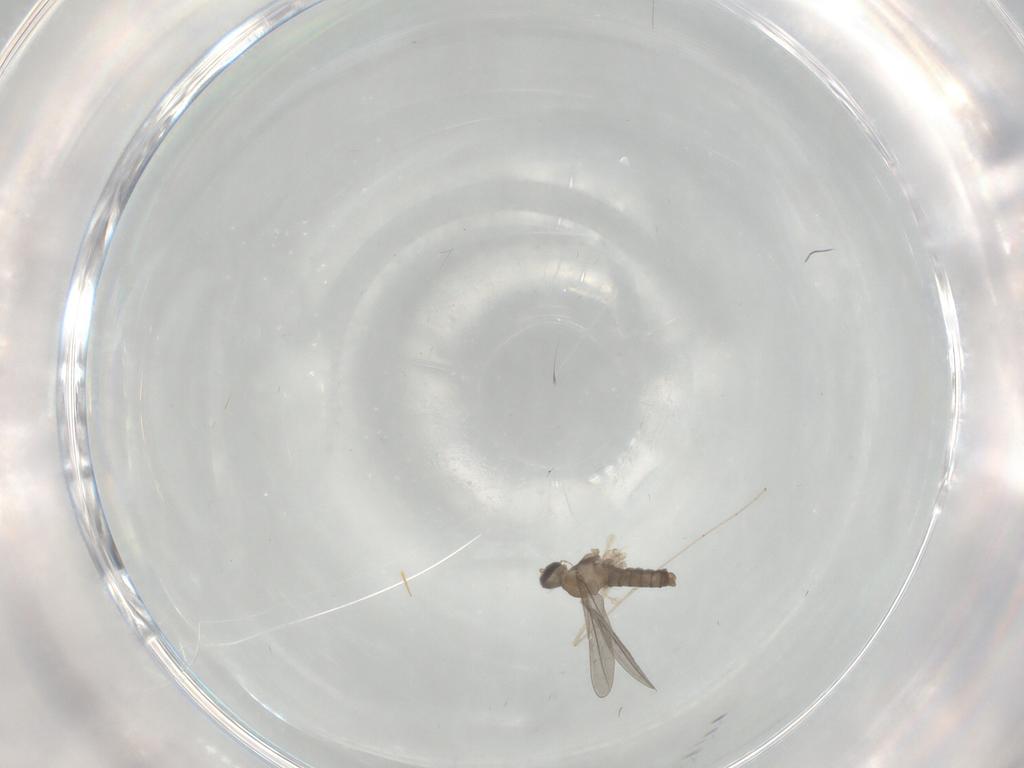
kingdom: Animalia
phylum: Arthropoda
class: Insecta
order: Diptera
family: Cecidomyiidae
